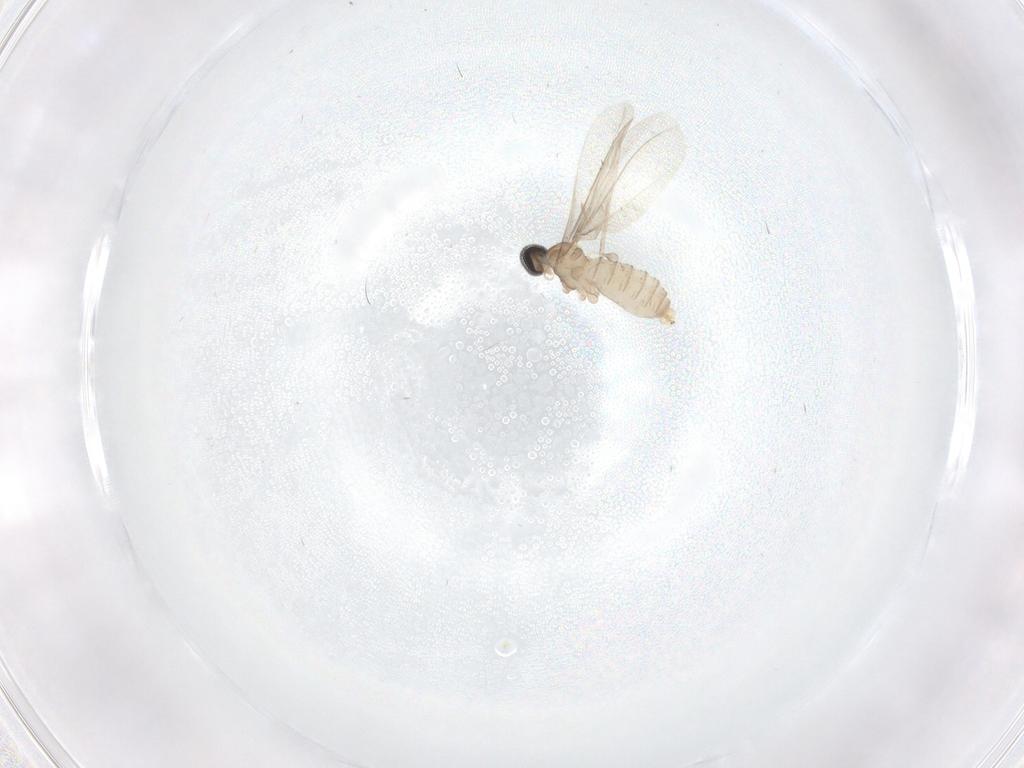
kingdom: Animalia
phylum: Arthropoda
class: Insecta
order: Diptera
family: Cecidomyiidae
